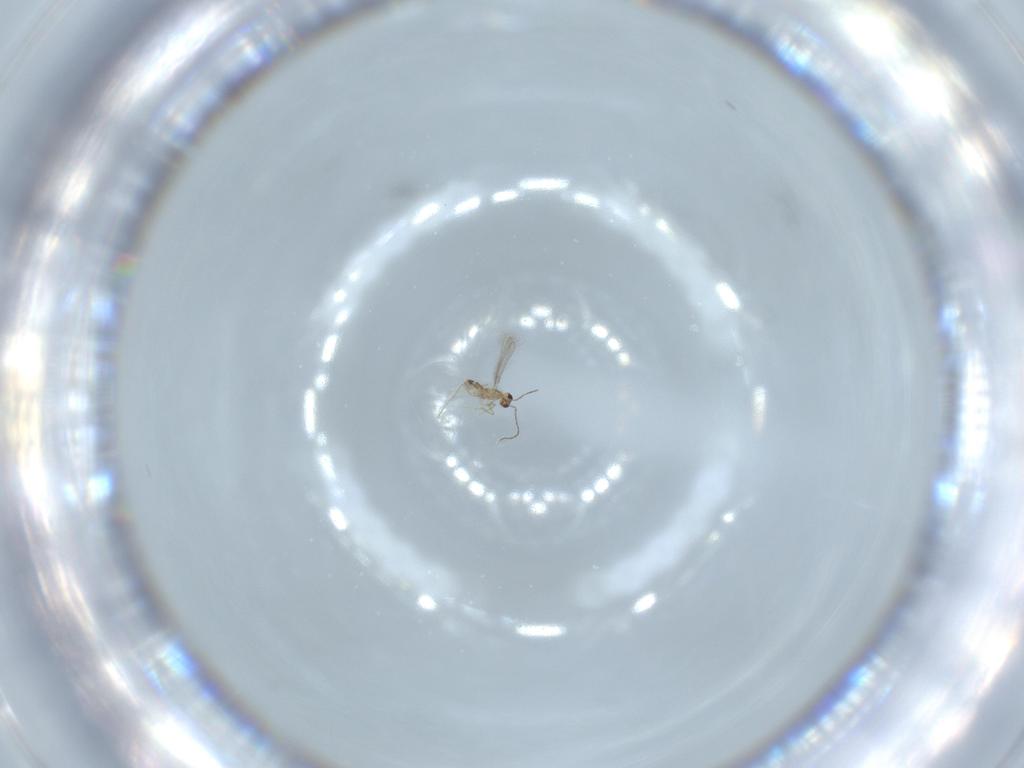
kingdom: Animalia
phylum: Arthropoda
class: Insecta
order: Hymenoptera
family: Mymaridae
